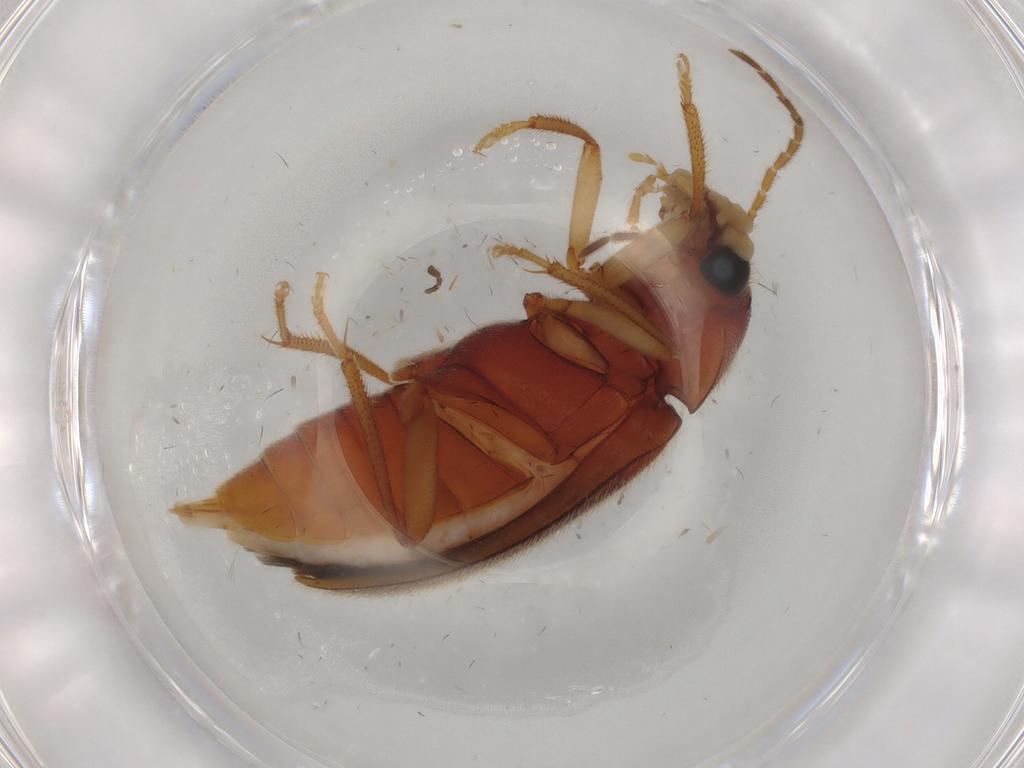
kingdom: Animalia
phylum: Arthropoda
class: Insecta
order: Coleoptera
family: Ptilodactylidae
